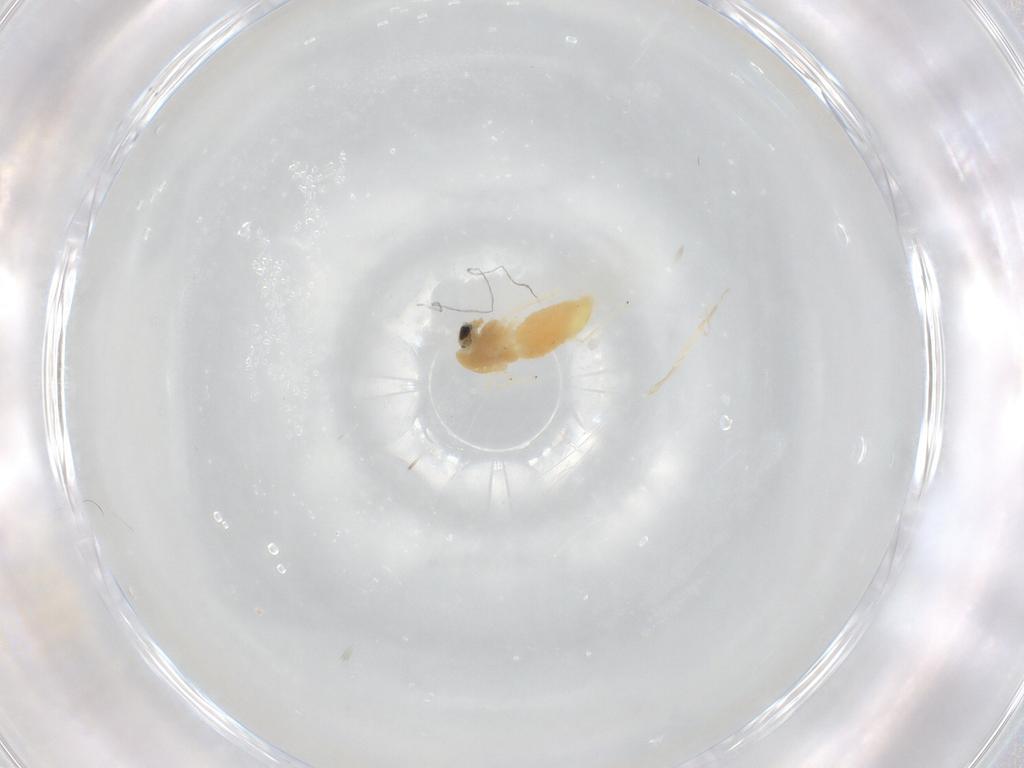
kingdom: Animalia
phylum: Arthropoda
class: Insecta
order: Diptera
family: Chironomidae
